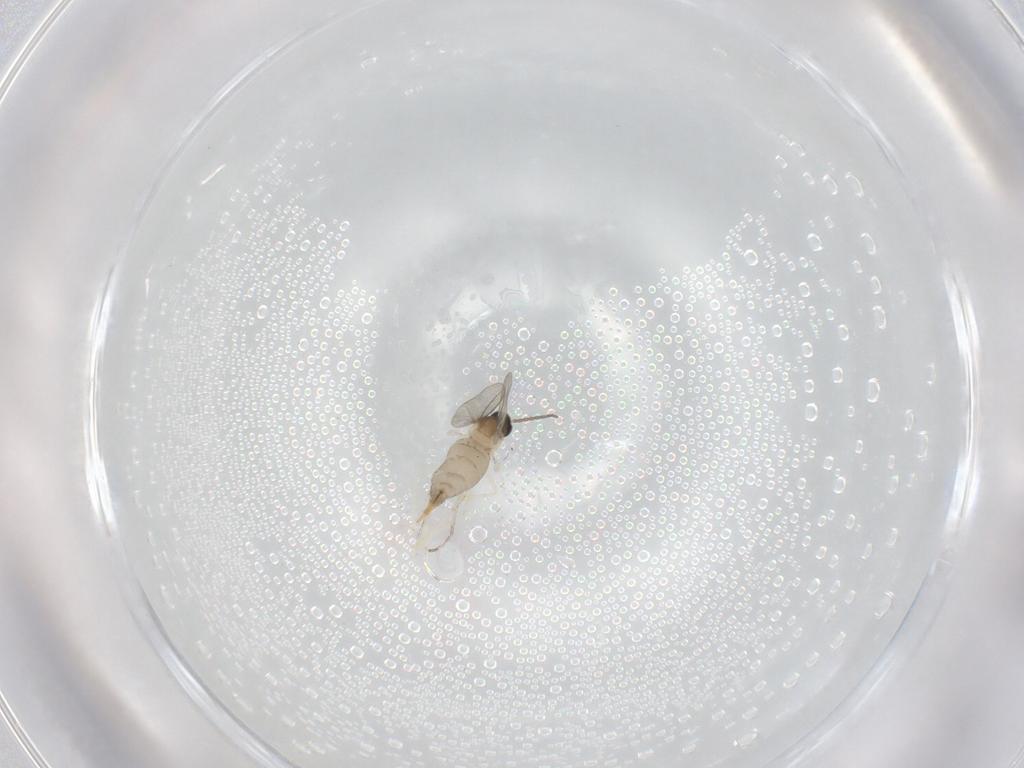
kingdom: Animalia
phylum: Arthropoda
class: Insecta
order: Diptera
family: Cecidomyiidae
